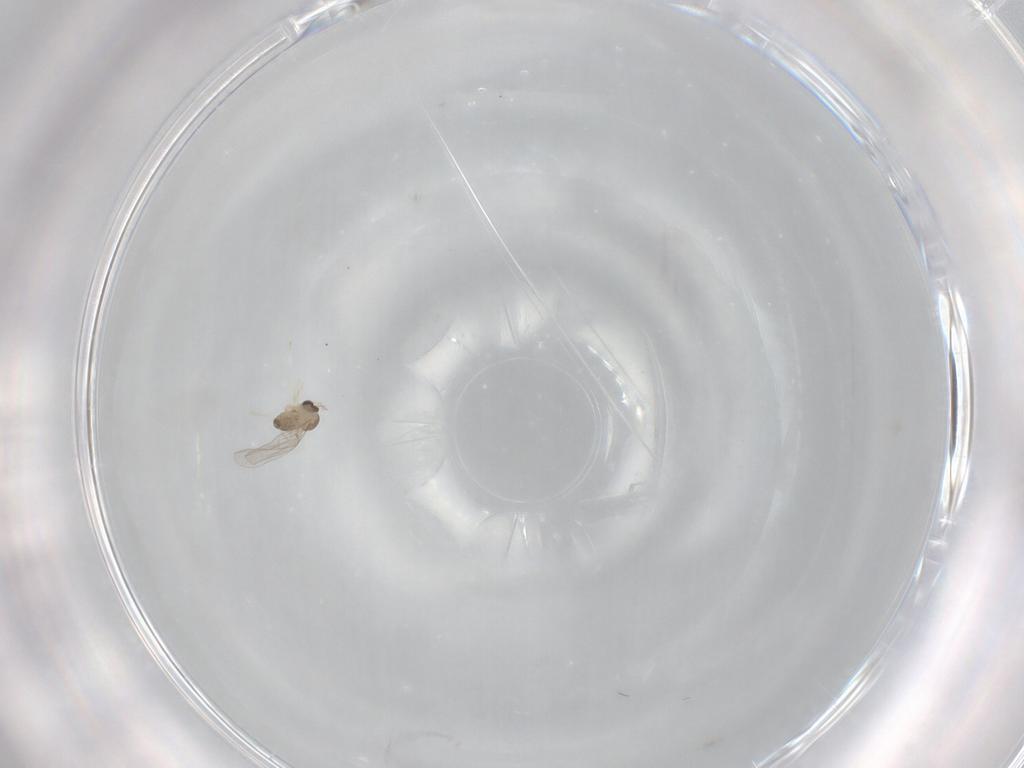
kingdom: Animalia
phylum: Arthropoda
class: Insecta
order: Diptera
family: Cecidomyiidae
